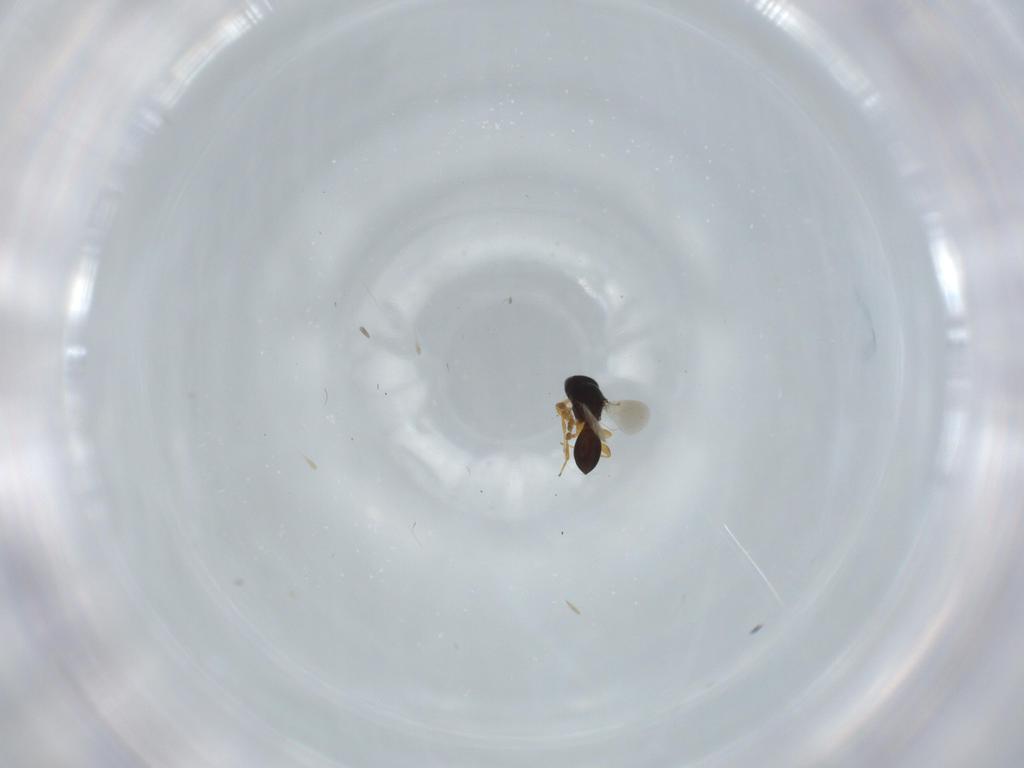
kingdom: Animalia
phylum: Arthropoda
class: Insecta
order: Hymenoptera
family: Platygastridae
